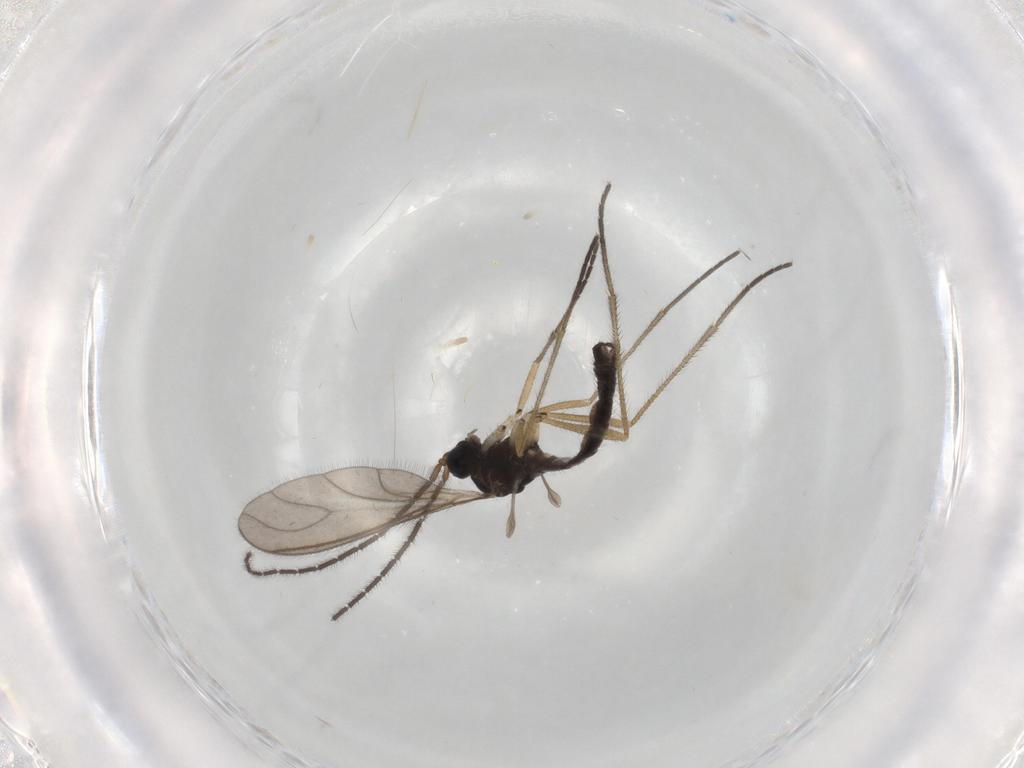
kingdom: Animalia
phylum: Arthropoda
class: Insecta
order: Diptera
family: Sciaridae
